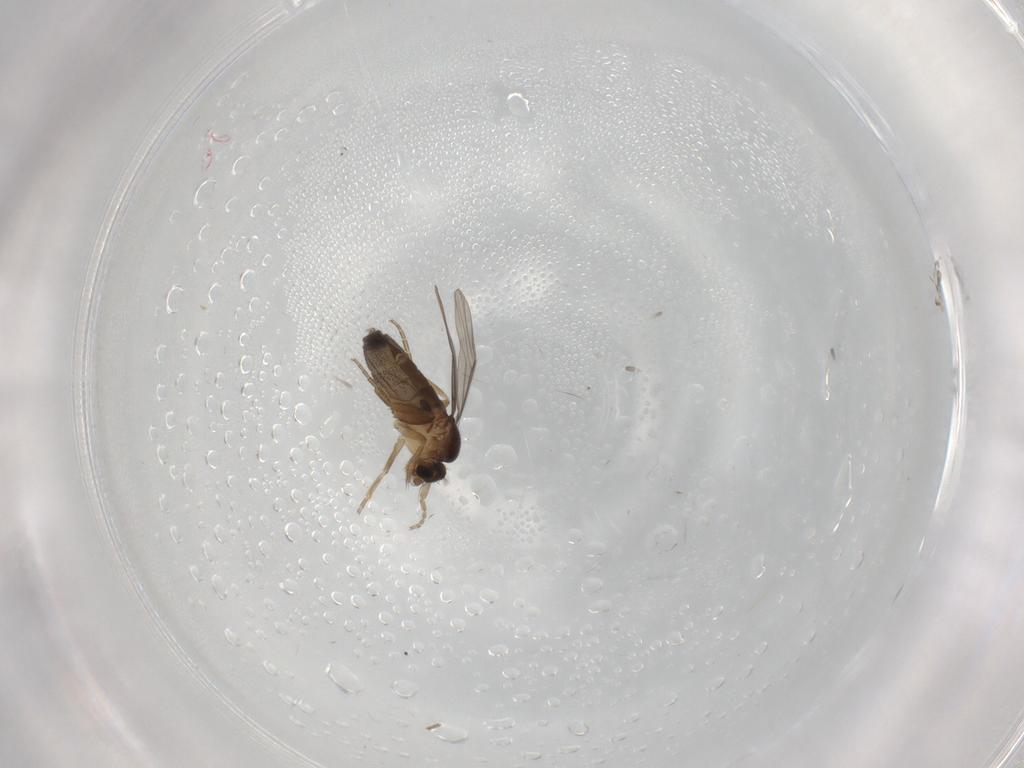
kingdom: Animalia
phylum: Arthropoda
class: Insecta
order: Diptera
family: Phoridae
